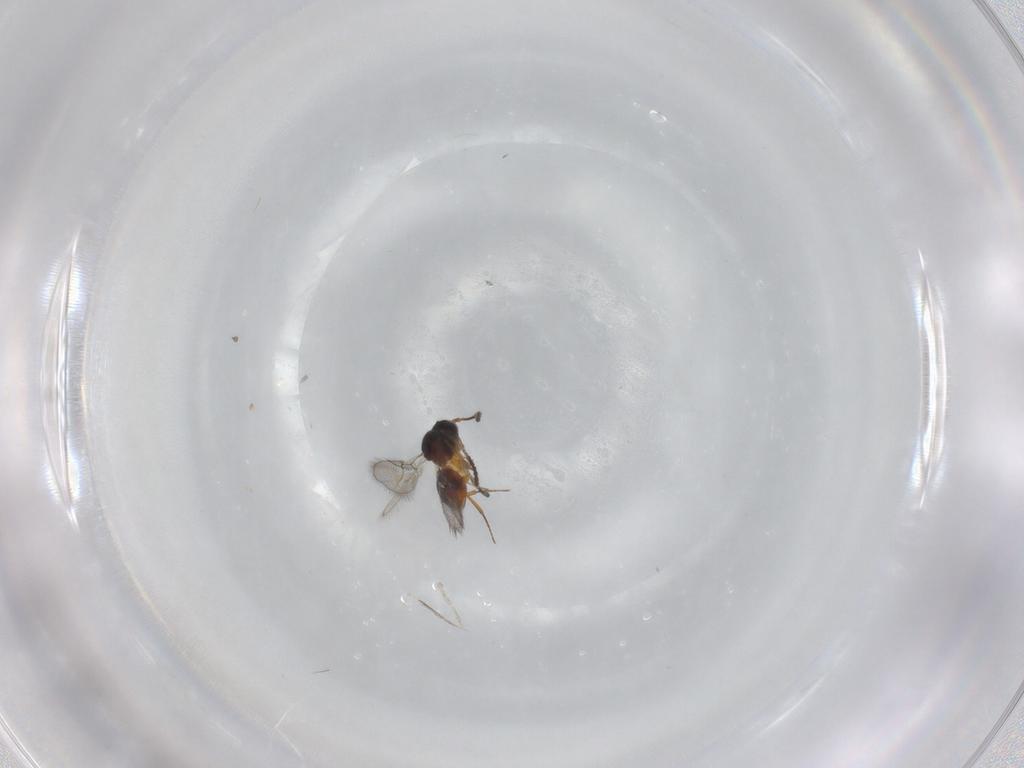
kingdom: Animalia
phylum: Arthropoda
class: Insecta
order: Hymenoptera
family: Figitidae
